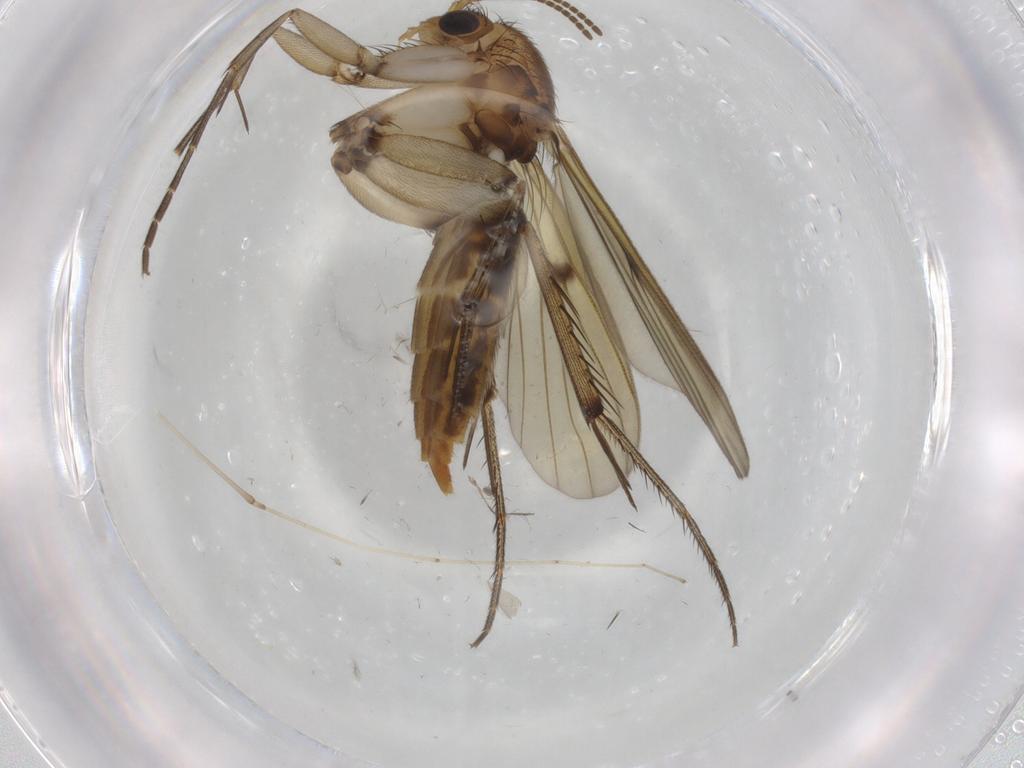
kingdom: Animalia
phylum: Arthropoda
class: Insecta
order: Diptera
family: Mycetophilidae
